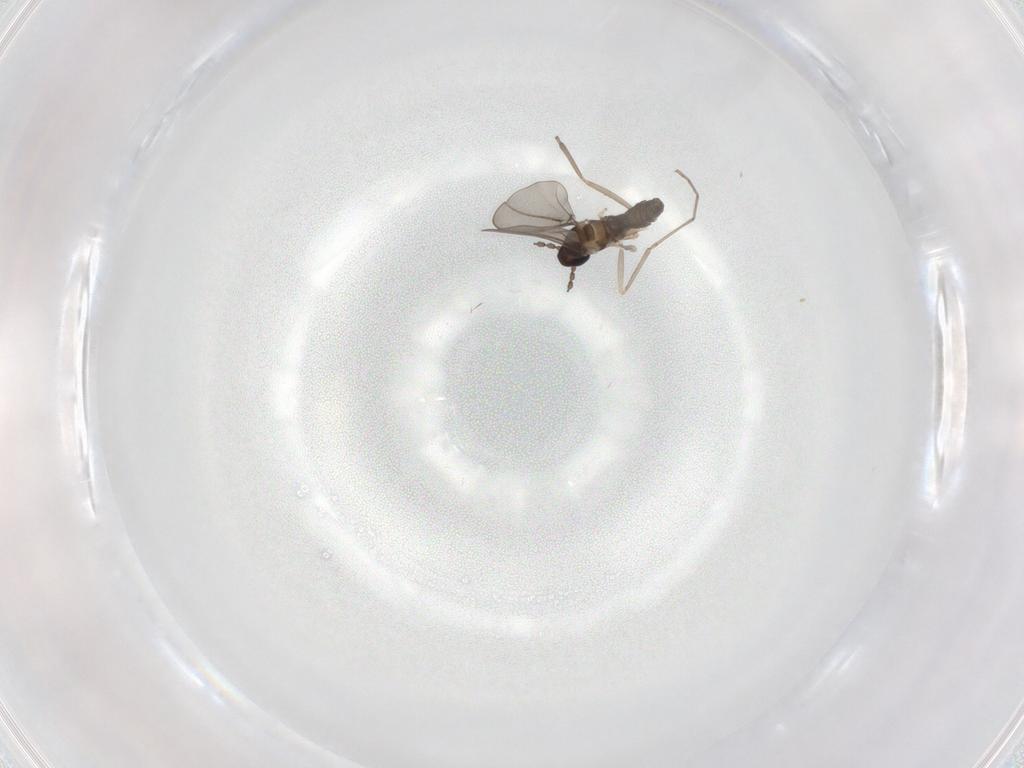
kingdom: Animalia
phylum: Arthropoda
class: Insecta
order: Diptera
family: Cecidomyiidae
